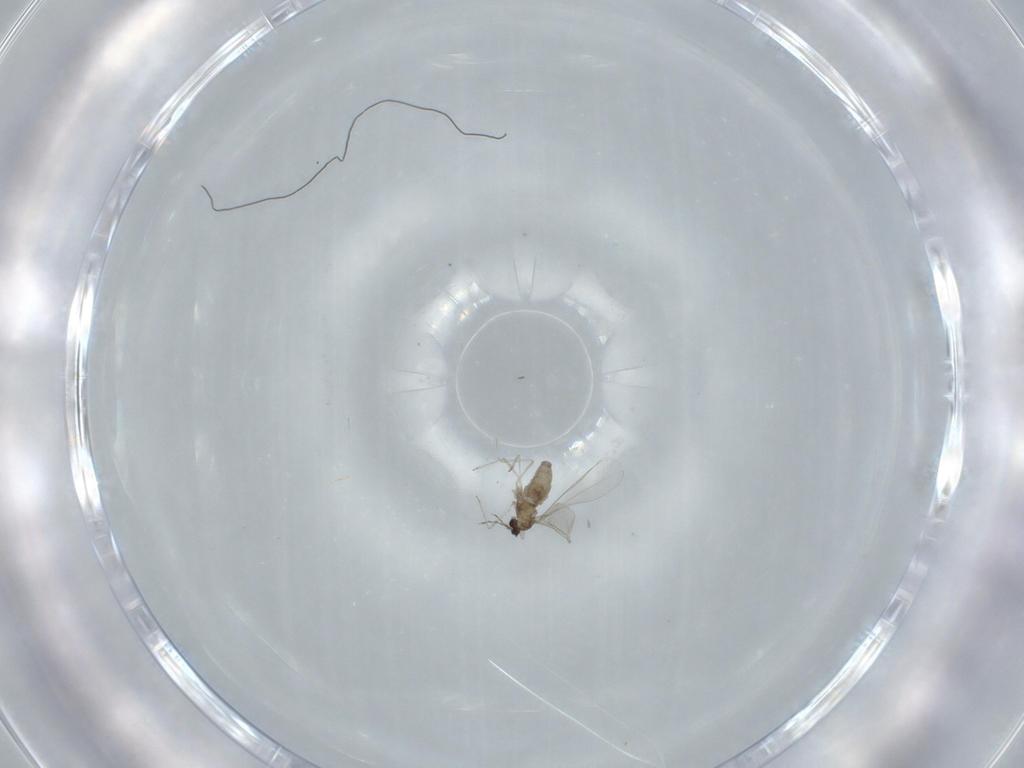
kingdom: Animalia
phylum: Arthropoda
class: Insecta
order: Diptera
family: Cecidomyiidae
